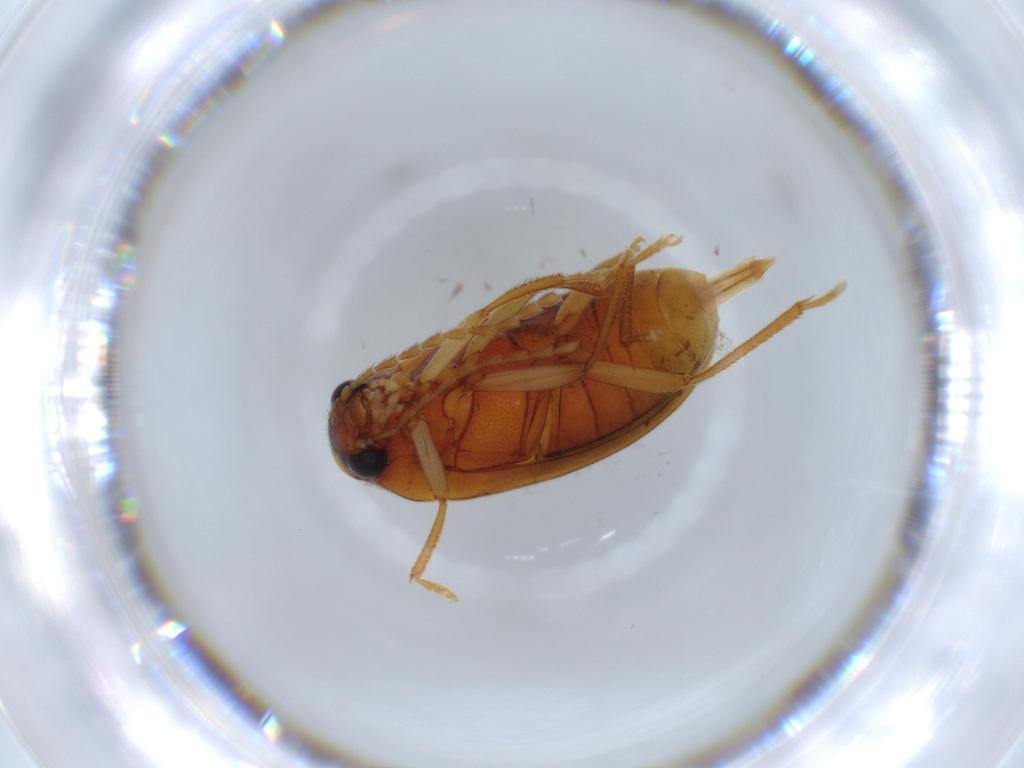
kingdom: Animalia
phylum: Arthropoda
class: Insecta
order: Coleoptera
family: Ptilodactylidae
